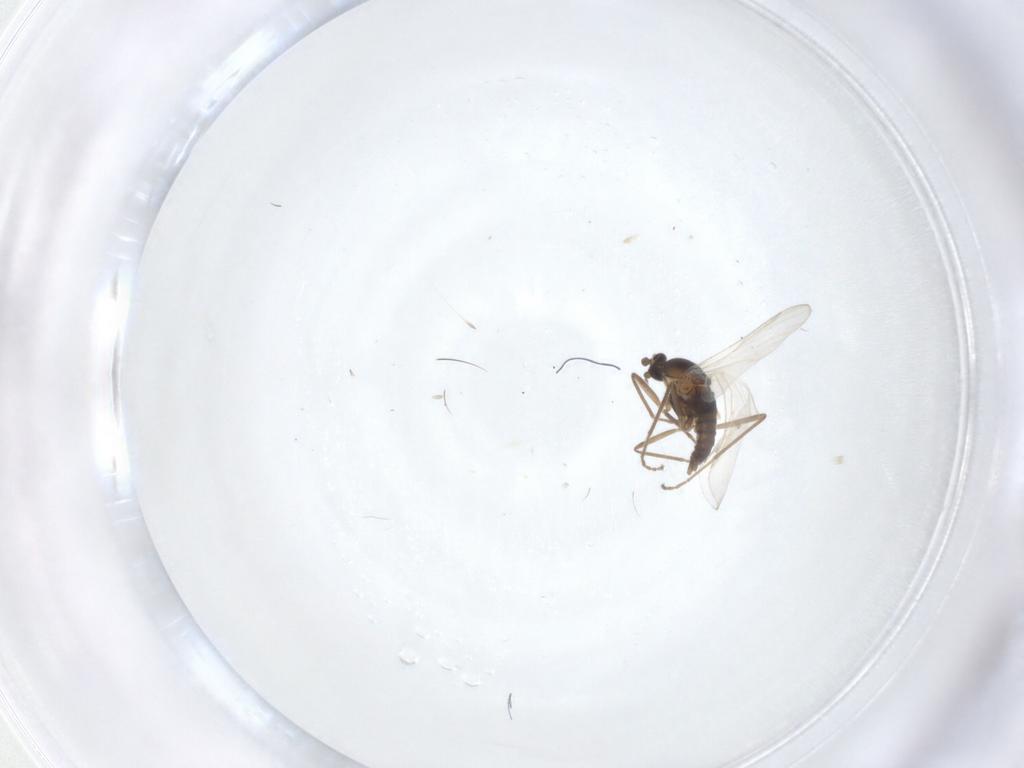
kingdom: Animalia
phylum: Arthropoda
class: Insecta
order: Diptera
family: Cecidomyiidae
